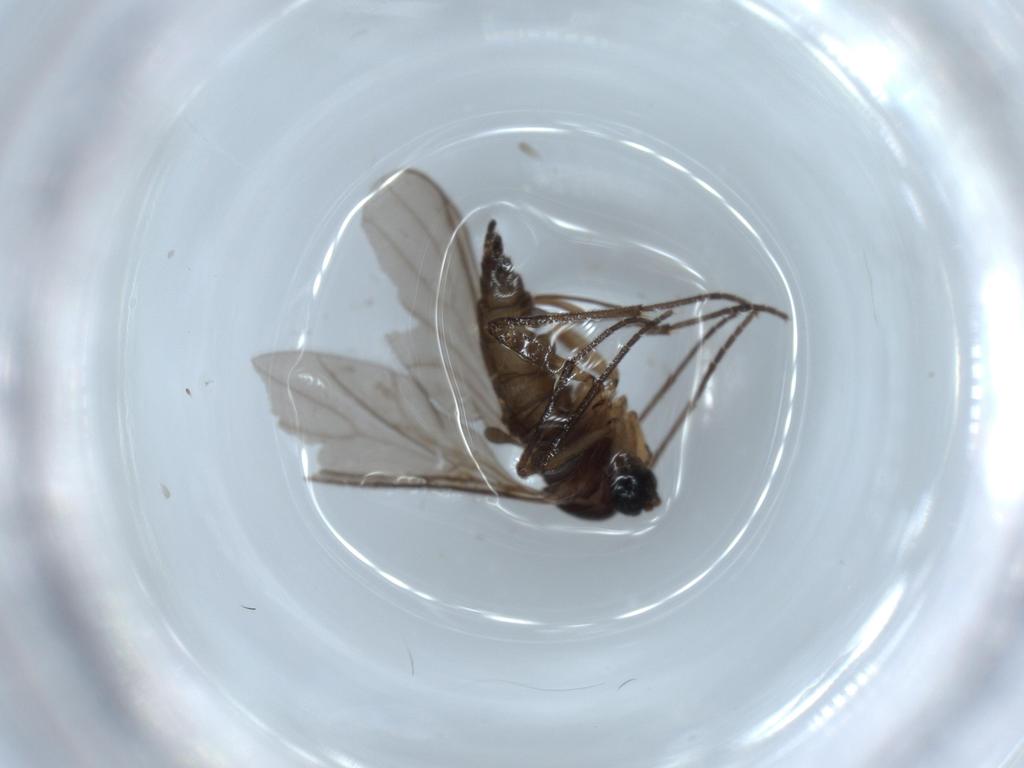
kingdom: Animalia
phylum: Arthropoda
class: Insecta
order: Diptera
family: Sciaridae
